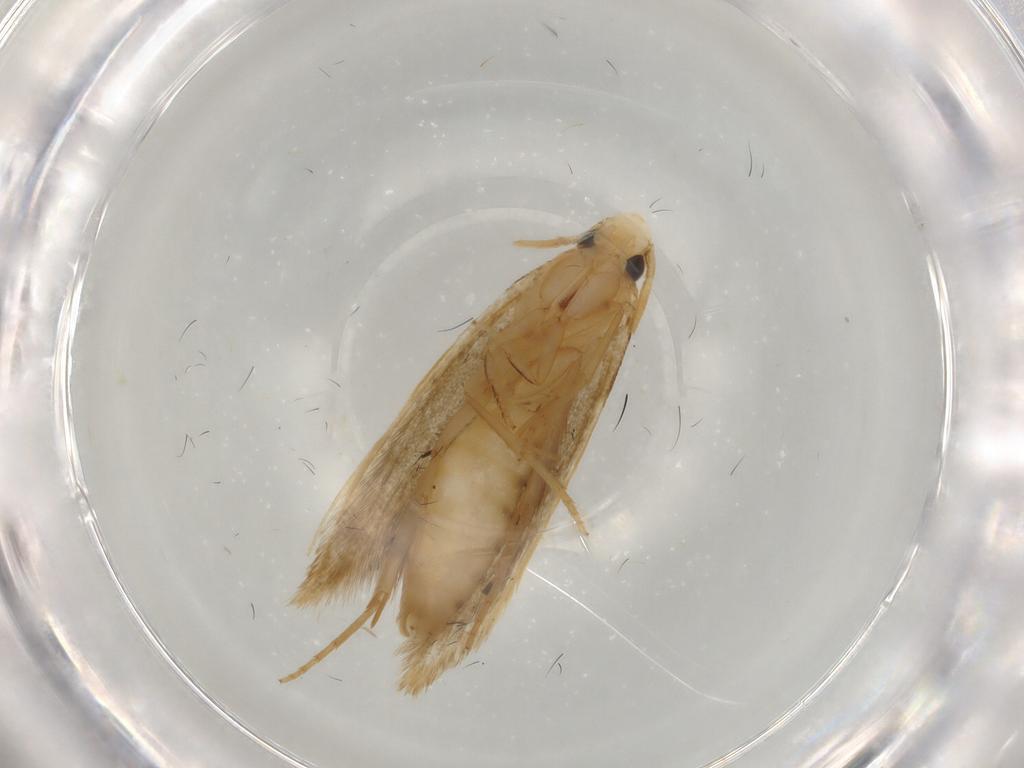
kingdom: Animalia
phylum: Arthropoda
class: Insecta
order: Lepidoptera
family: Tineidae
